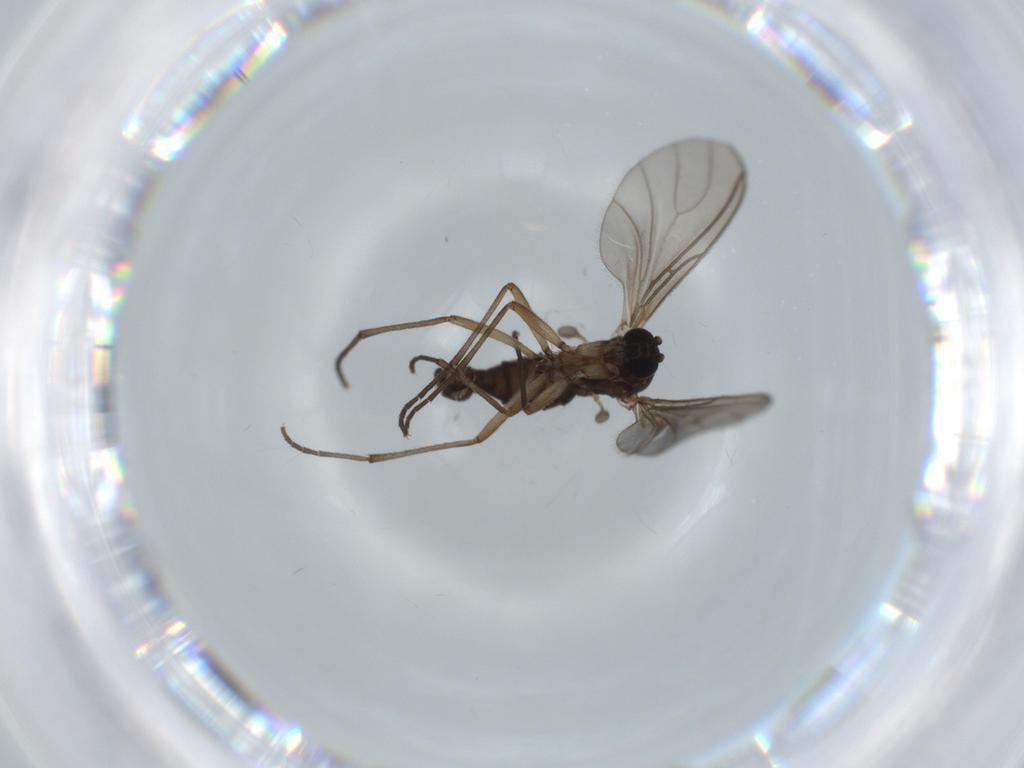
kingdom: Animalia
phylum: Arthropoda
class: Insecta
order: Diptera
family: Sciaridae
